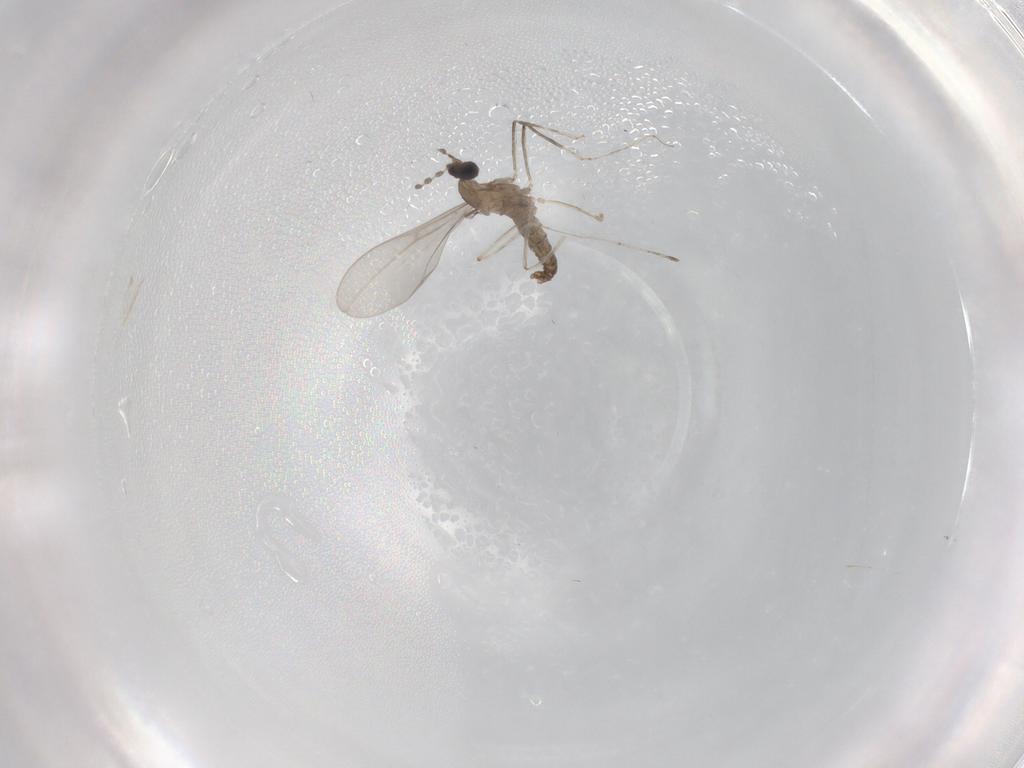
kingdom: Animalia
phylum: Arthropoda
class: Insecta
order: Diptera
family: Cecidomyiidae
